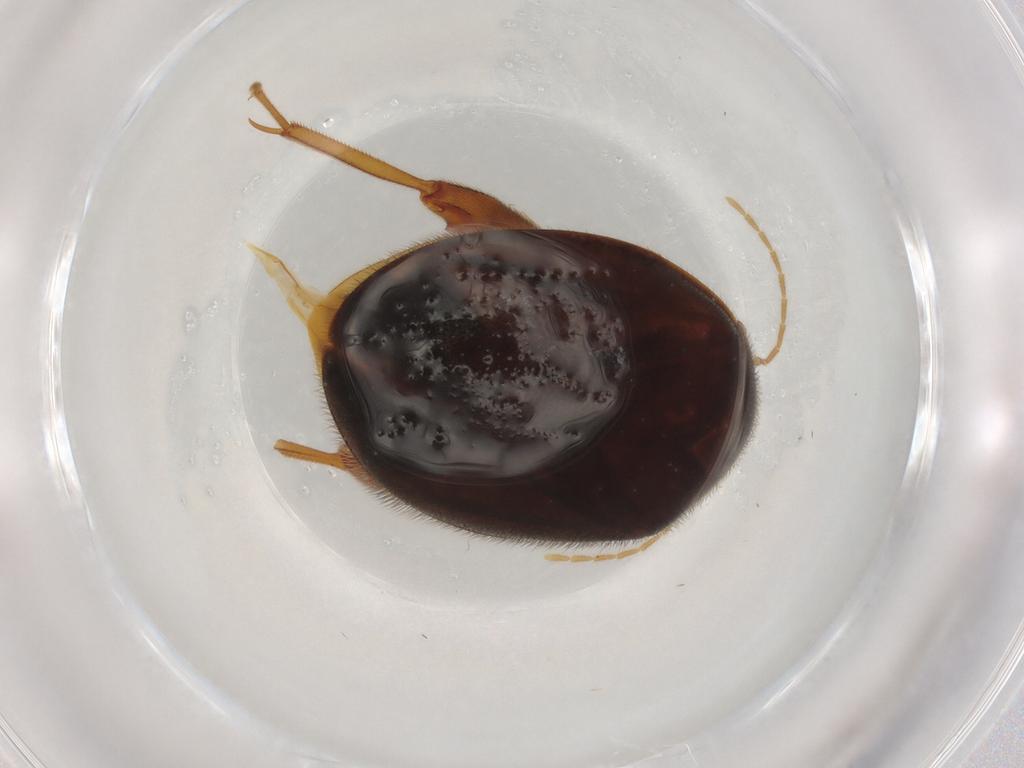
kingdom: Animalia
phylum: Arthropoda
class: Insecta
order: Coleoptera
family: Scirtidae
